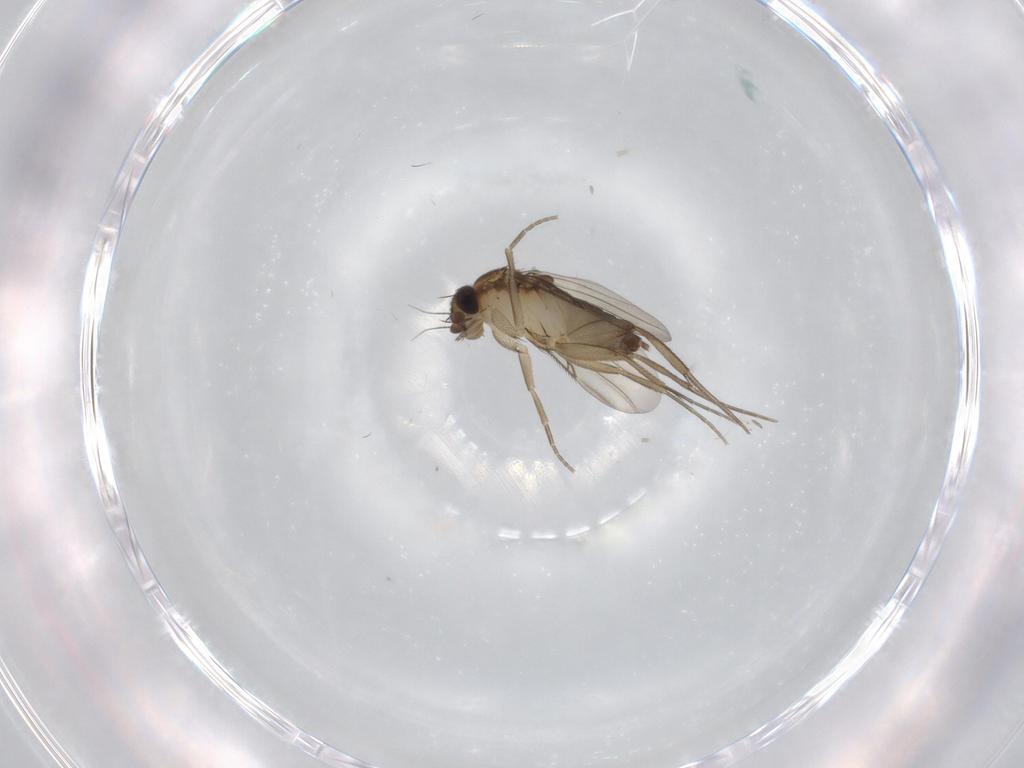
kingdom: Animalia
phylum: Arthropoda
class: Insecta
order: Diptera
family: Phoridae
